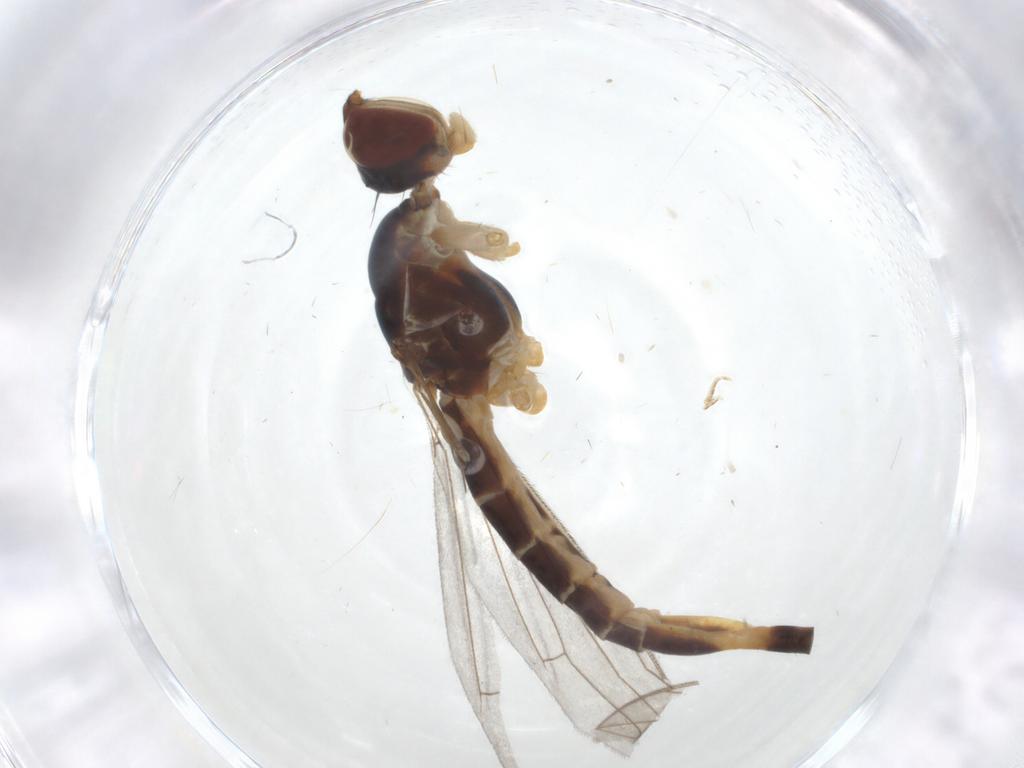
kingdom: Animalia
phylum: Arthropoda
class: Insecta
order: Diptera
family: Micropezidae
